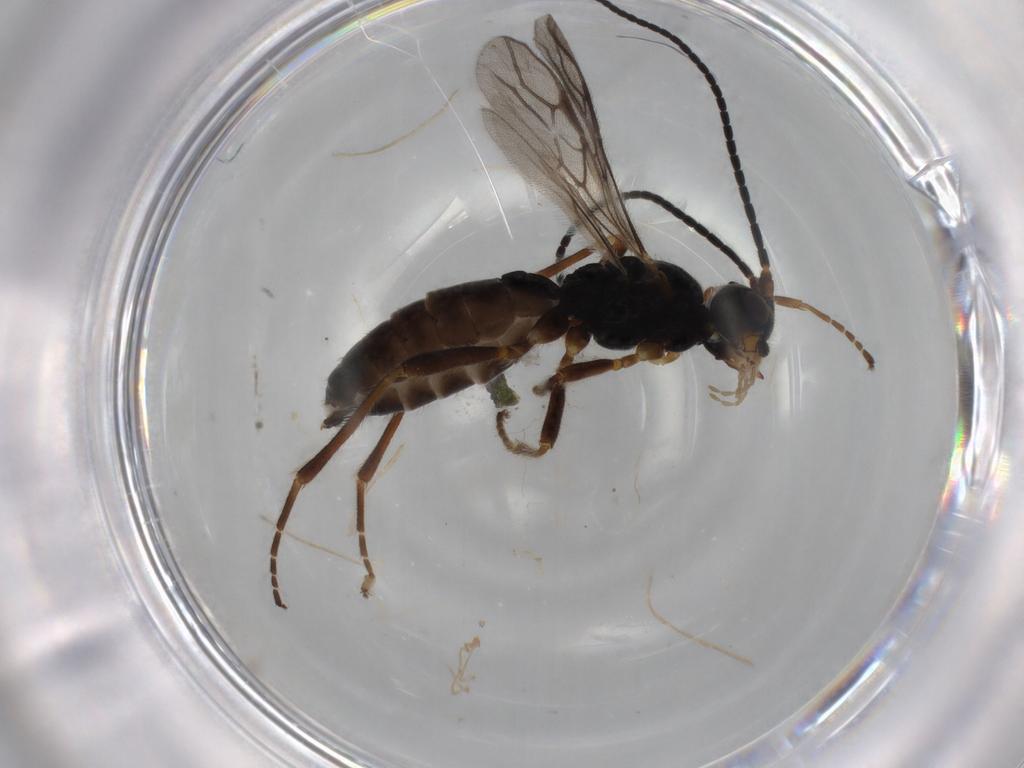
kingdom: Animalia
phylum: Arthropoda
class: Insecta
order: Hymenoptera
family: Braconidae
